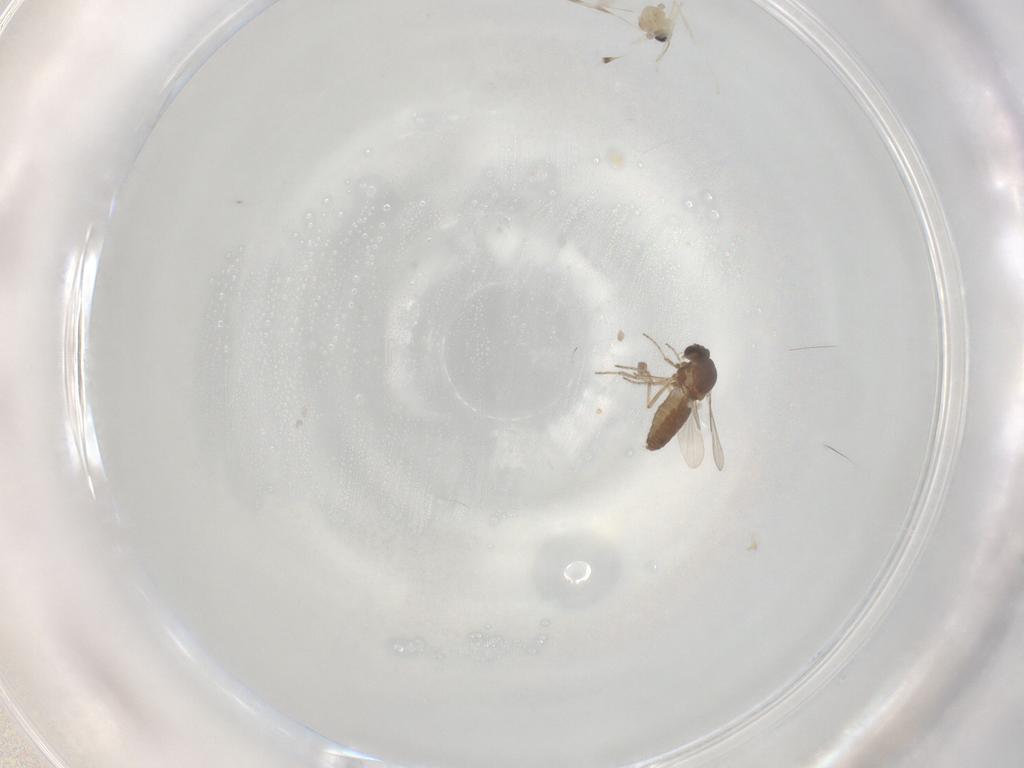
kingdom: Animalia
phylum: Arthropoda
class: Insecta
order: Diptera
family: Ceratopogonidae
